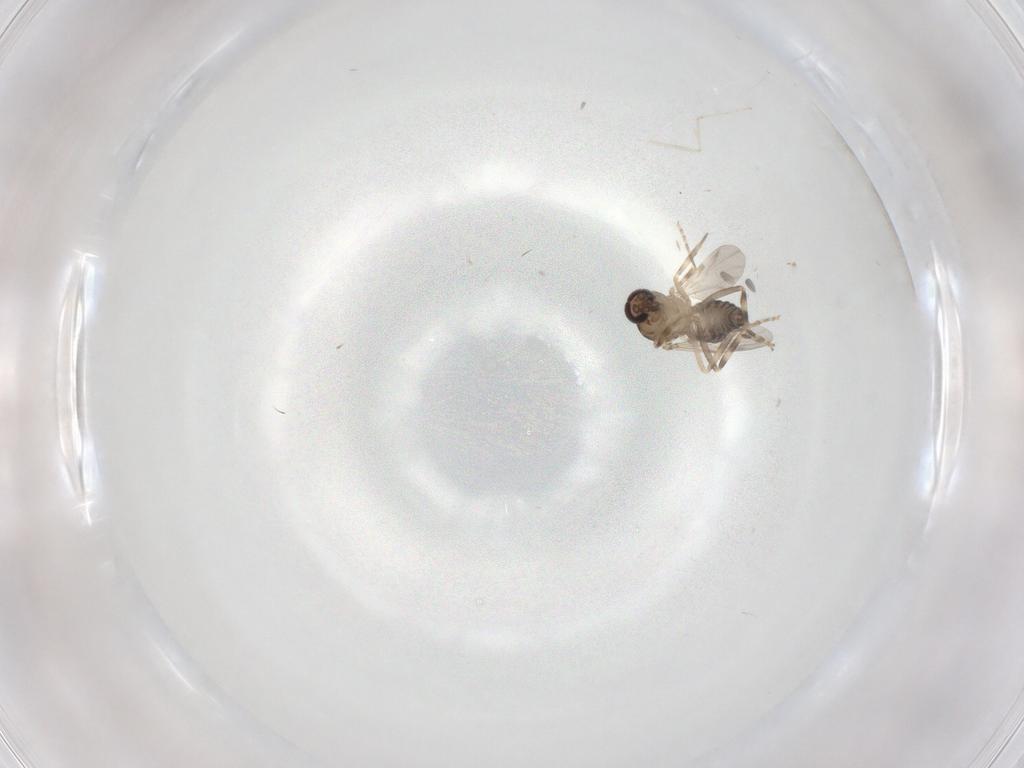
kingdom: Animalia
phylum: Arthropoda
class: Insecta
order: Diptera
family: Ceratopogonidae
